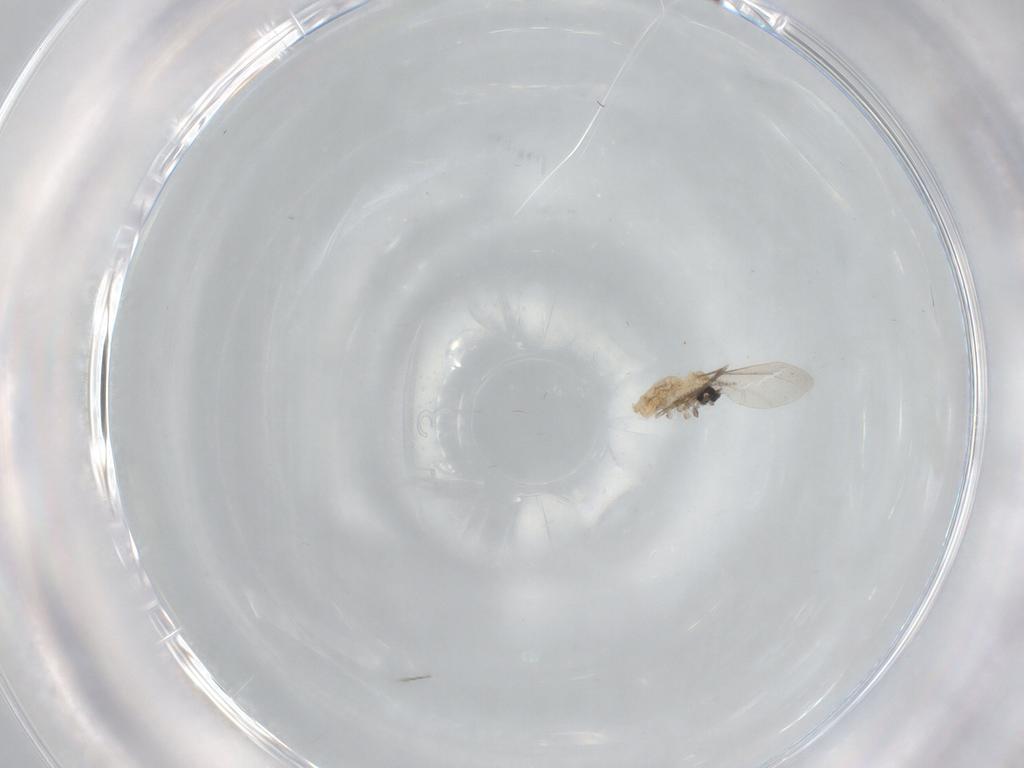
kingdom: Animalia
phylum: Arthropoda
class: Insecta
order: Diptera
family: Cecidomyiidae
